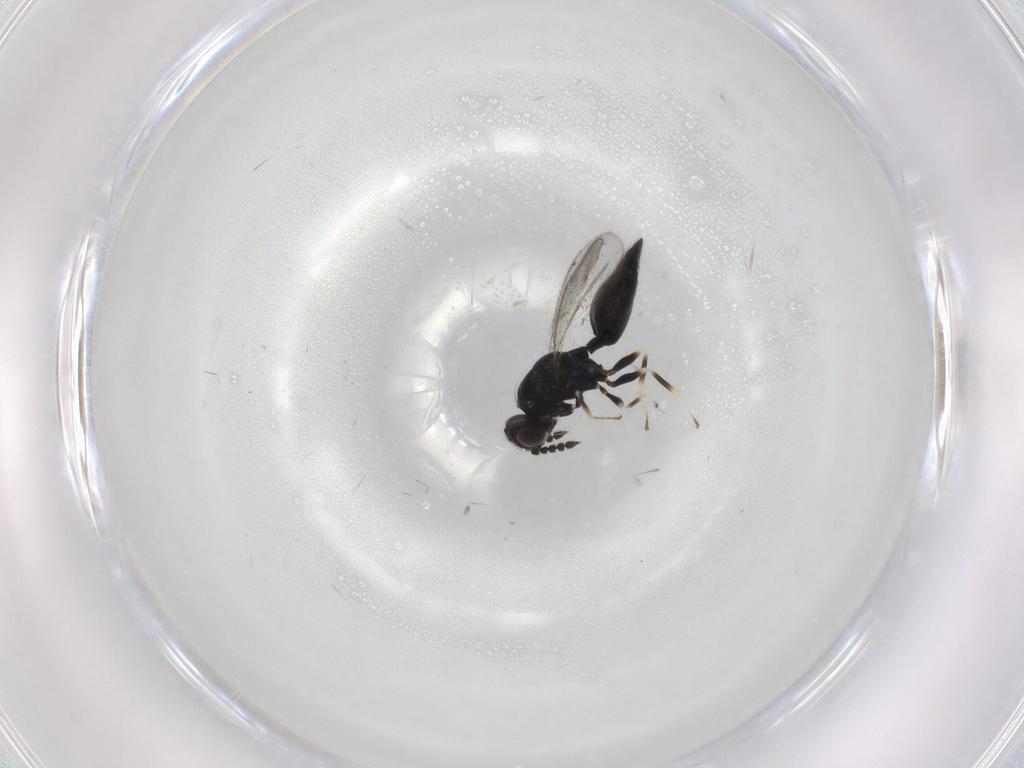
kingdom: Animalia
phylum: Arthropoda
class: Insecta
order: Hymenoptera
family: Eulophidae
